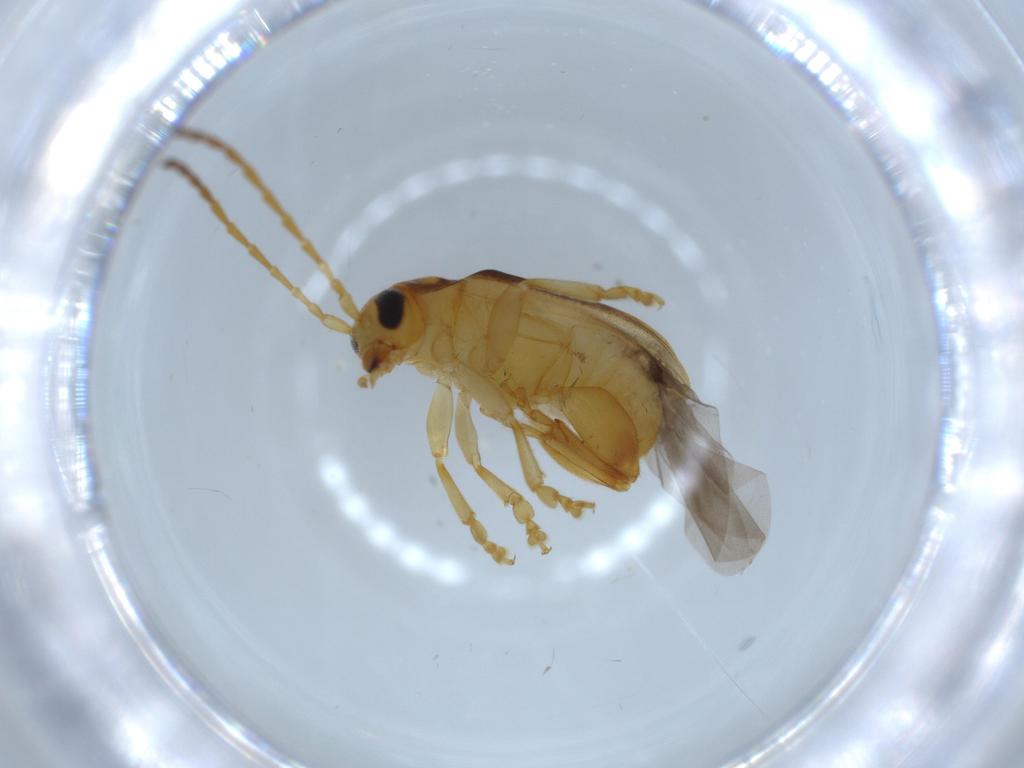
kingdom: Animalia
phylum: Arthropoda
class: Insecta
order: Coleoptera
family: Chrysomelidae
